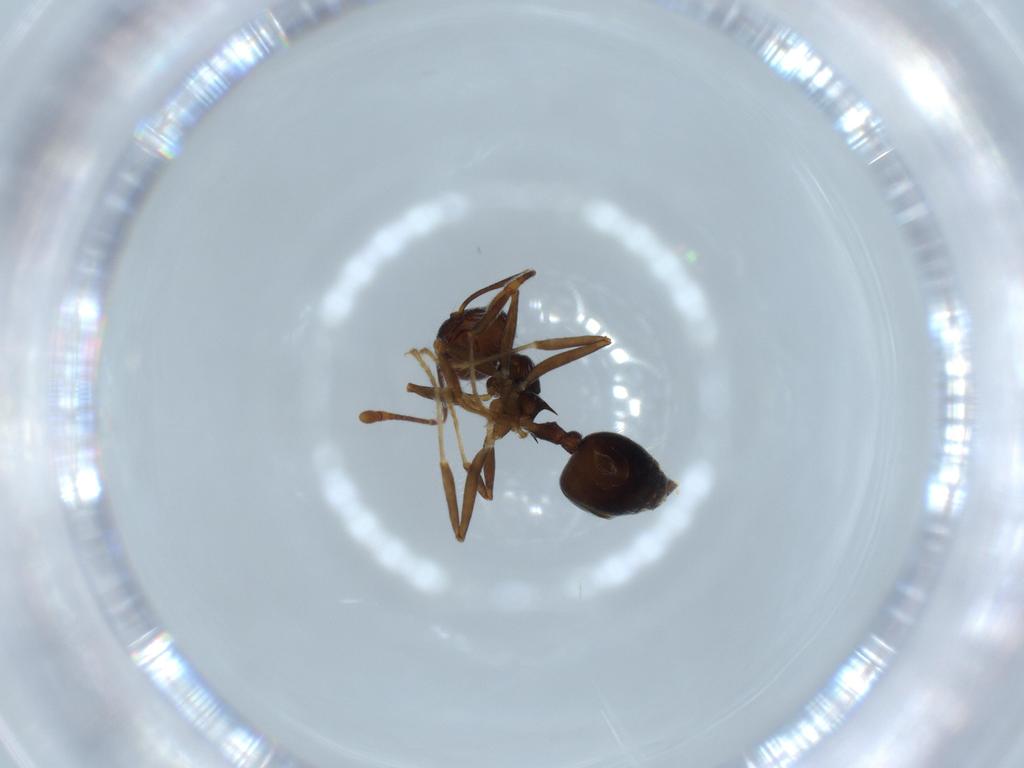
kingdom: Animalia
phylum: Arthropoda
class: Insecta
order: Hymenoptera
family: Formicidae
